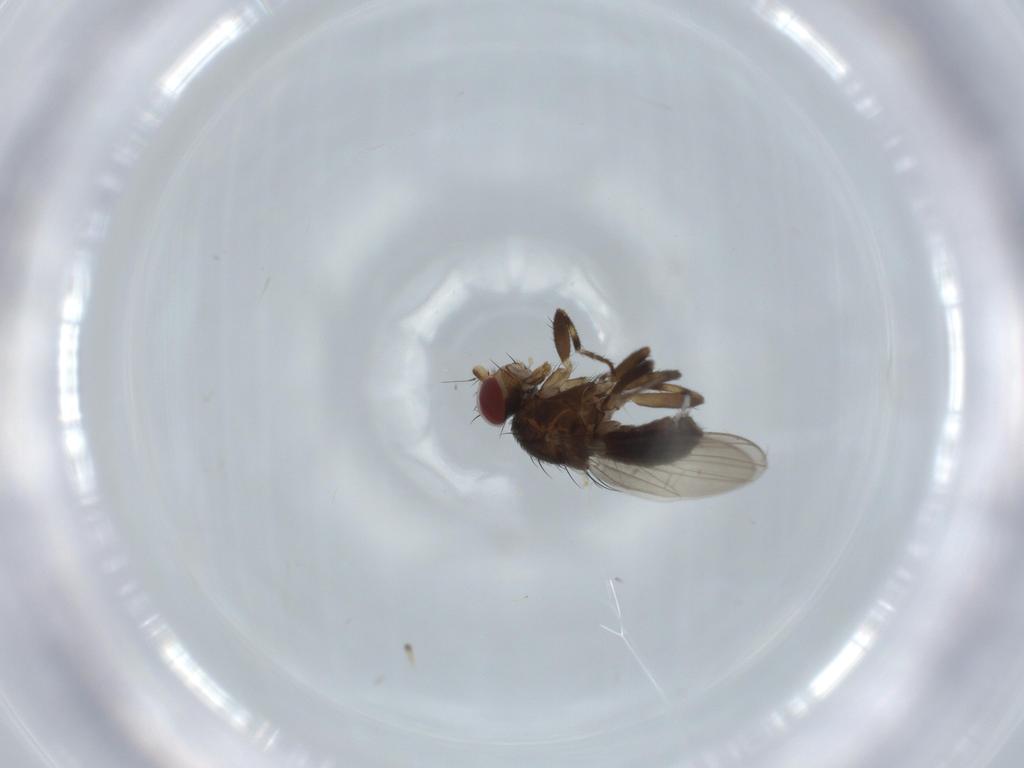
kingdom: Animalia
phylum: Arthropoda
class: Insecta
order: Diptera
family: Heleomyzidae
